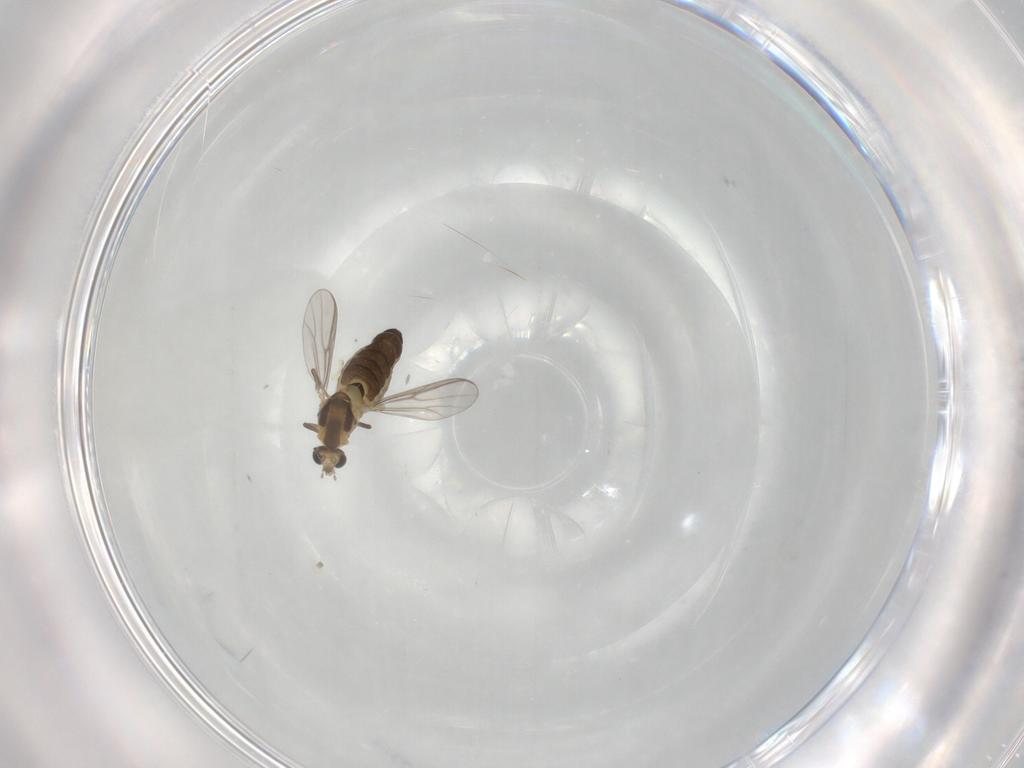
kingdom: Animalia
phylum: Arthropoda
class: Insecta
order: Diptera
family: Chironomidae
